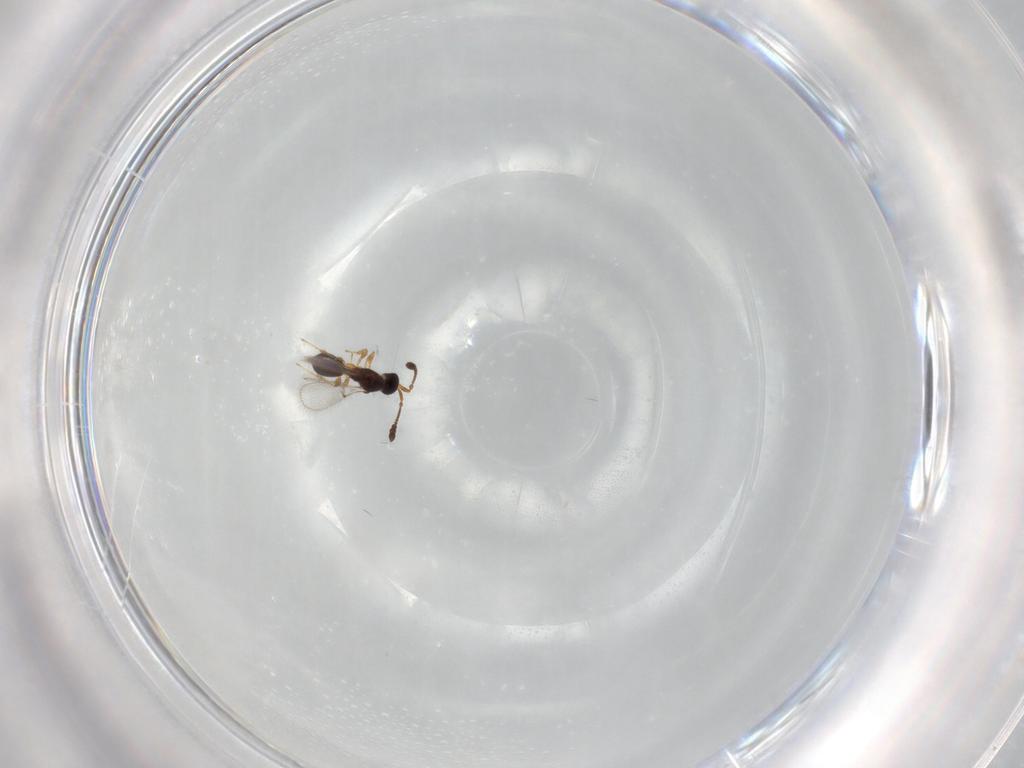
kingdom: Animalia
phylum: Arthropoda
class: Insecta
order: Hymenoptera
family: Diapriidae
